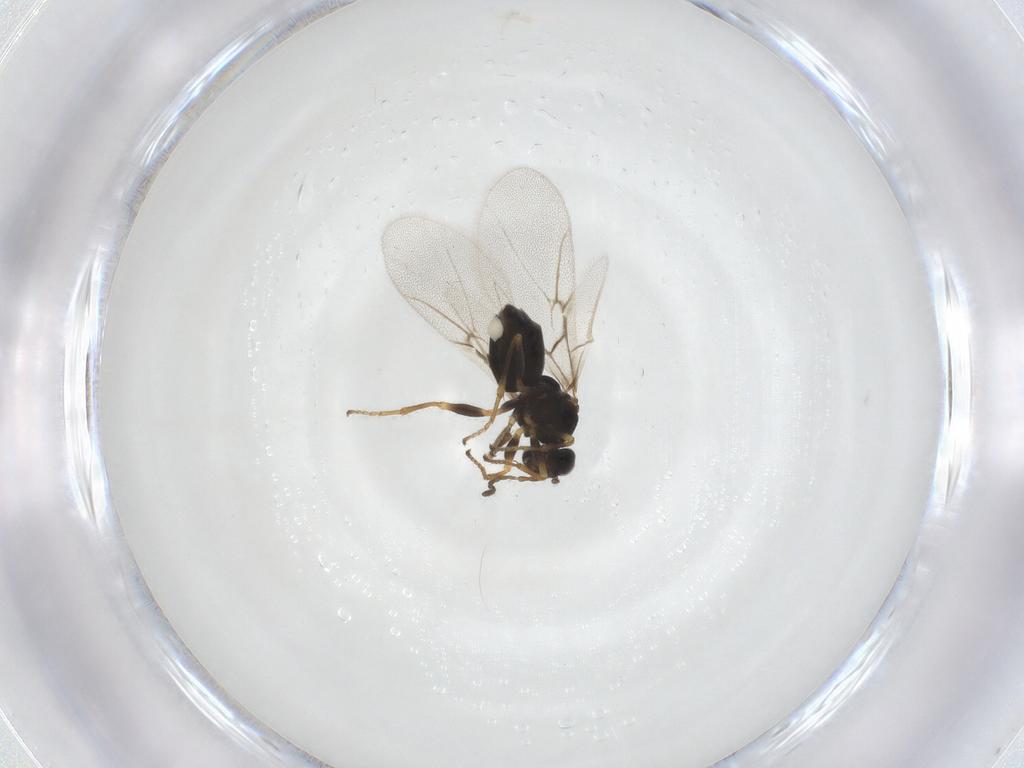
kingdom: Animalia
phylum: Arthropoda
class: Insecta
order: Hymenoptera
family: Cynipidae
